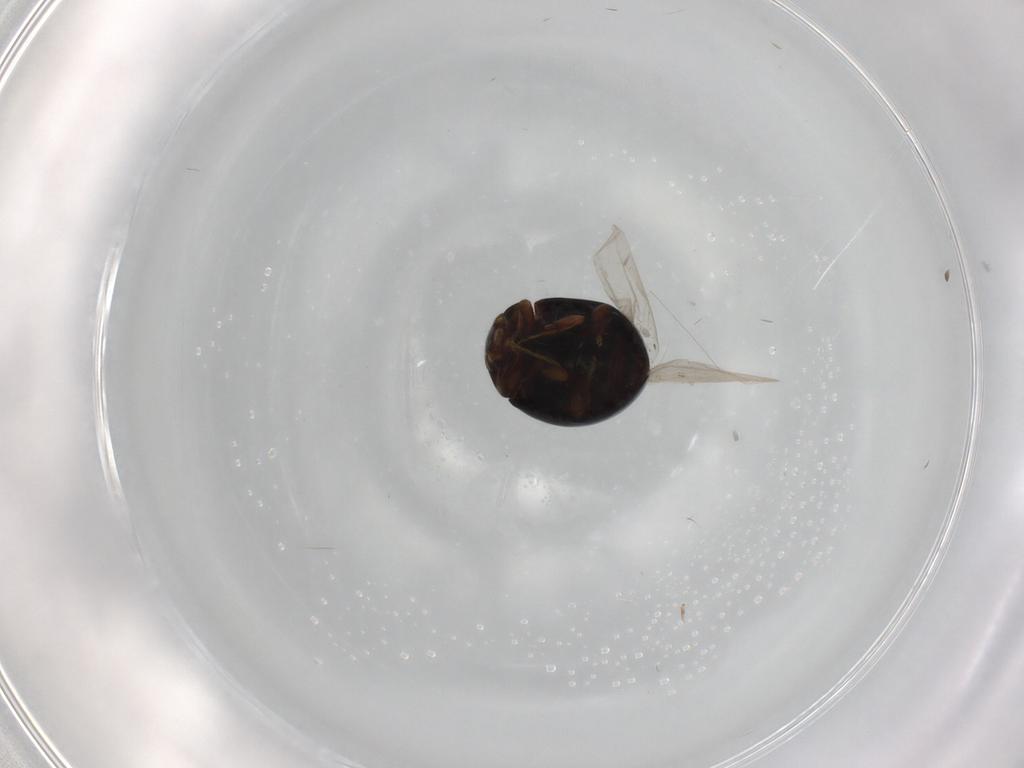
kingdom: Animalia
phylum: Arthropoda
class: Insecta
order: Coleoptera
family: Coccinellidae
